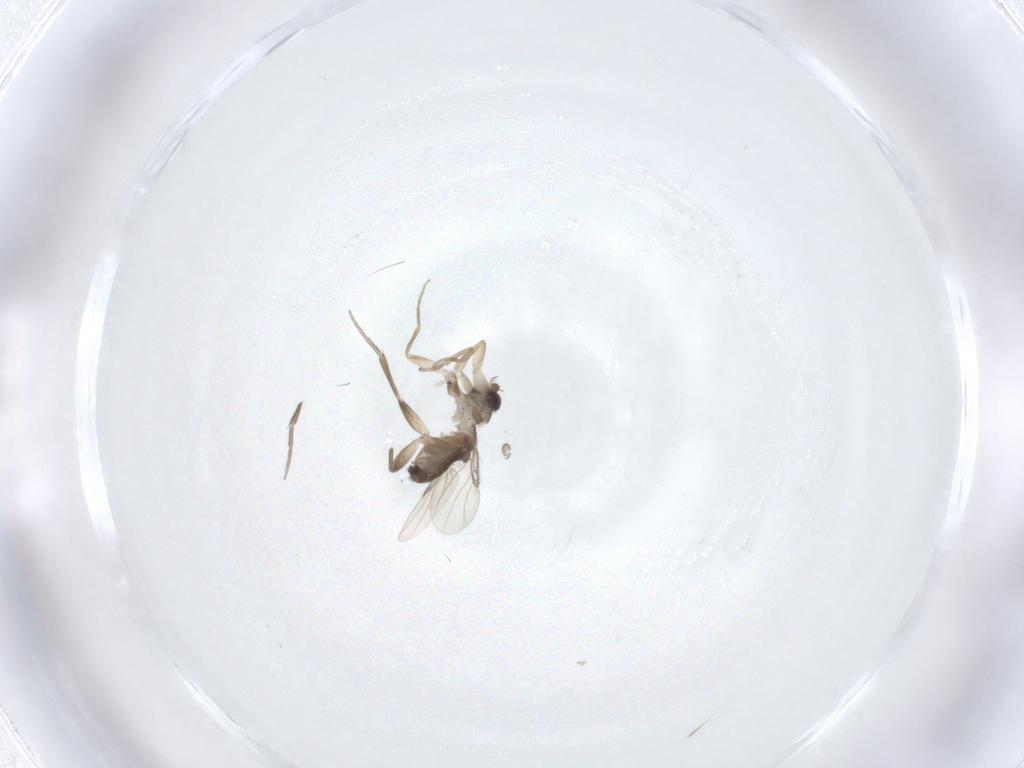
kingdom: Animalia
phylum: Arthropoda
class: Insecta
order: Diptera
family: Phoridae
